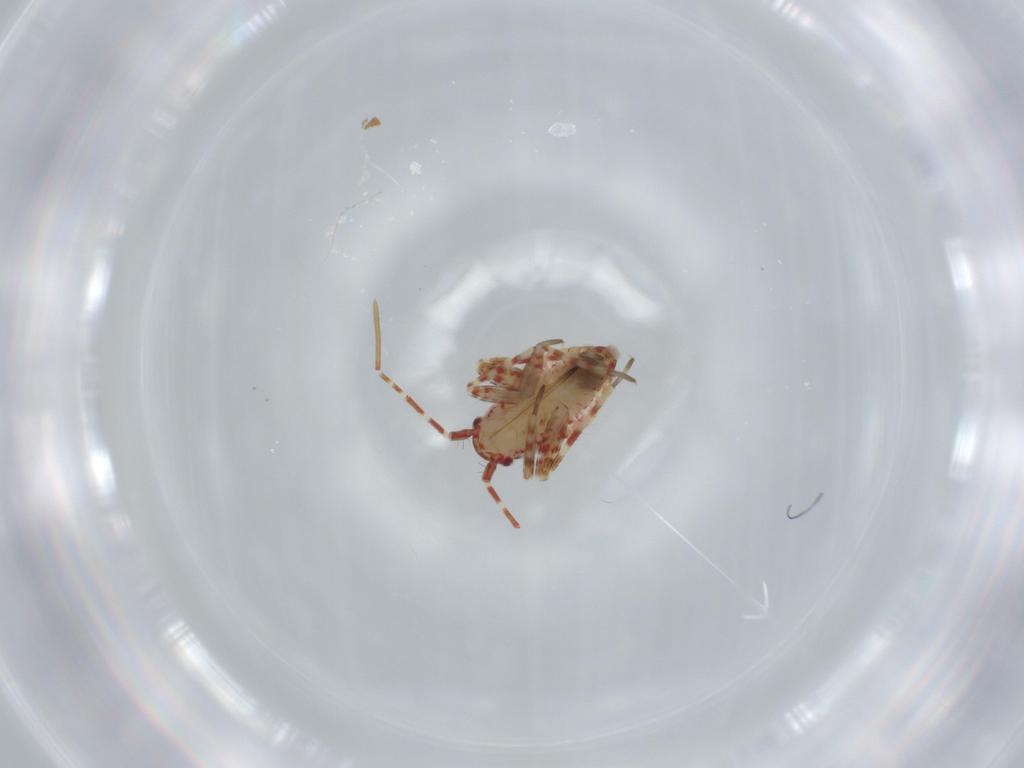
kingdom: Animalia
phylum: Arthropoda
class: Insecta
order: Hemiptera
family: Miridae
